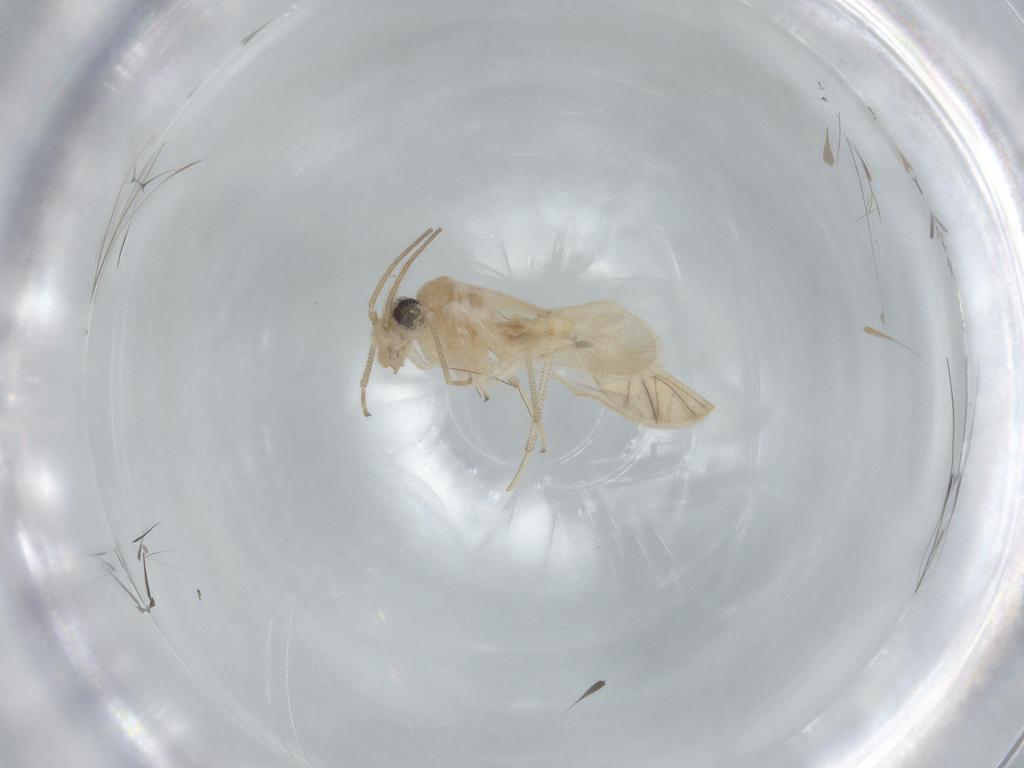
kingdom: Animalia
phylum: Arthropoda
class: Insecta
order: Psocodea
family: Caeciliusidae
